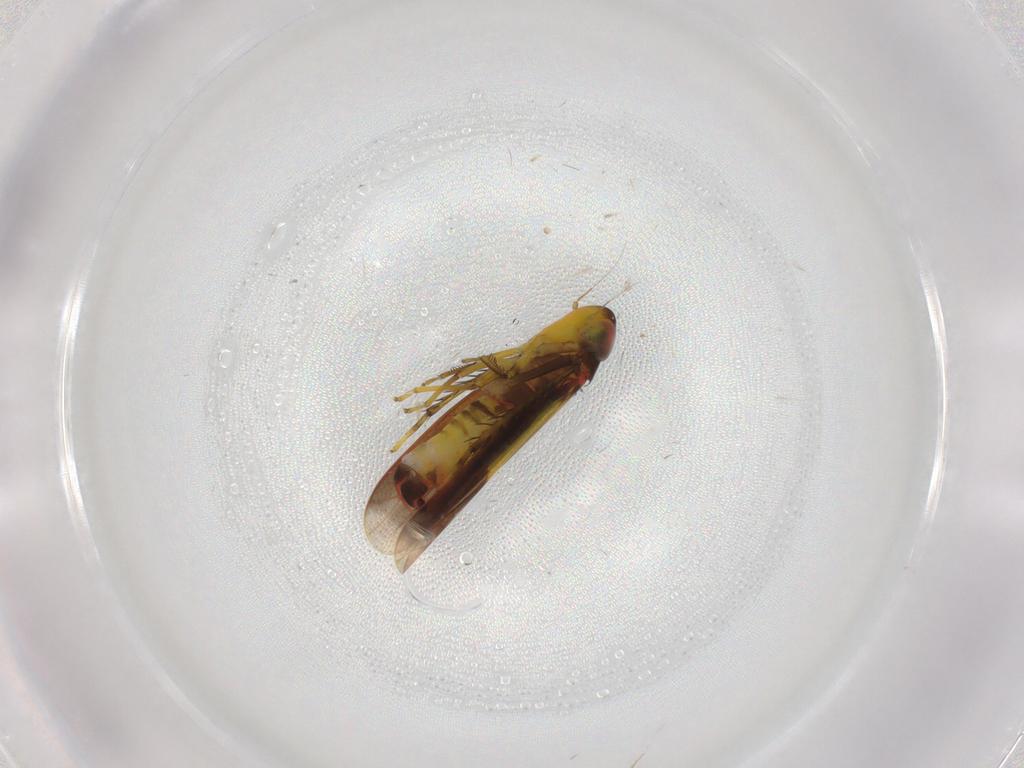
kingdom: Animalia
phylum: Arthropoda
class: Insecta
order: Hemiptera
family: Cicadellidae
